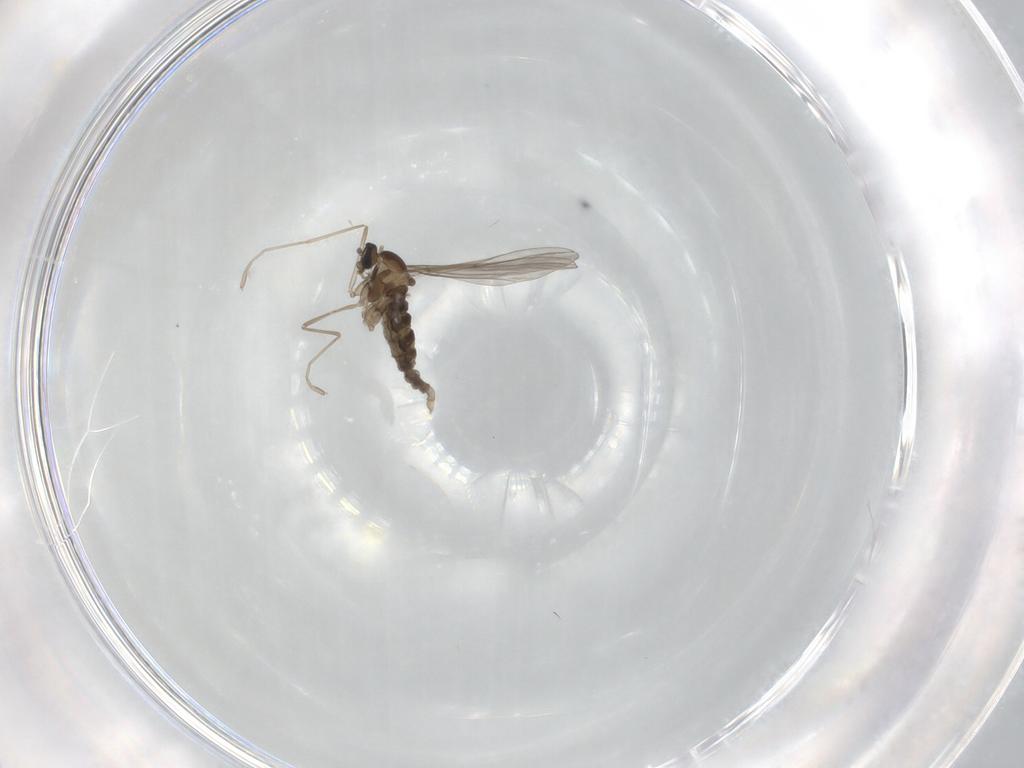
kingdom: Animalia
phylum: Arthropoda
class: Insecta
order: Diptera
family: Cecidomyiidae
